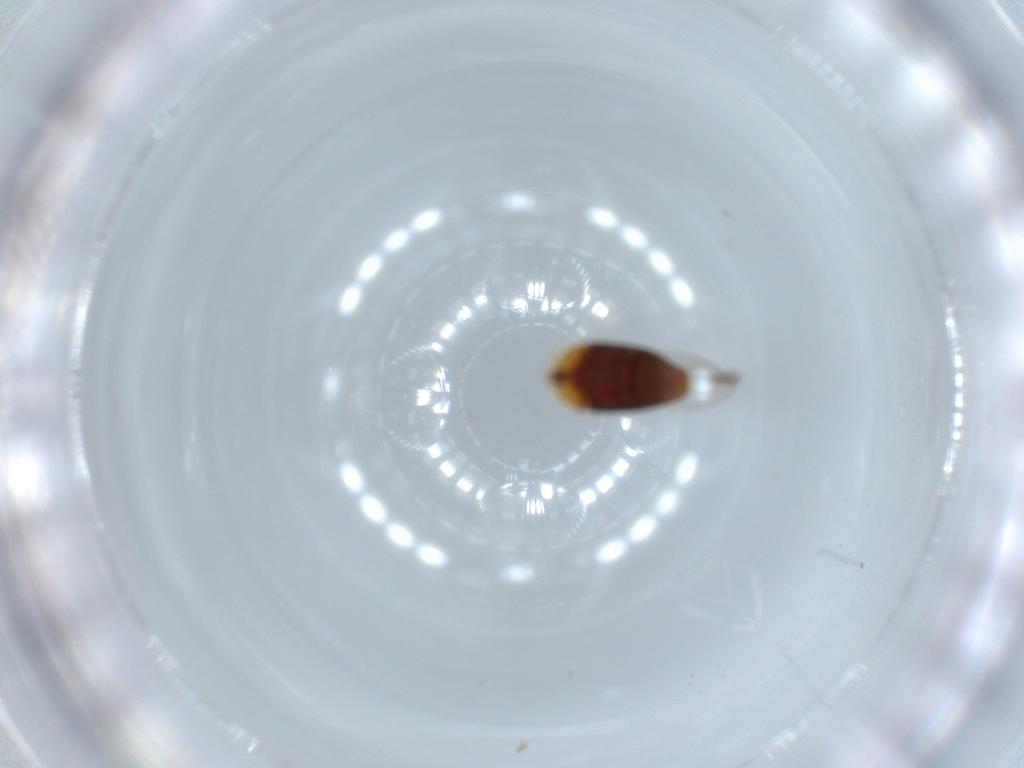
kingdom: Animalia
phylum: Arthropoda
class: Insecta
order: Coleoptera
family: Corylophidae
